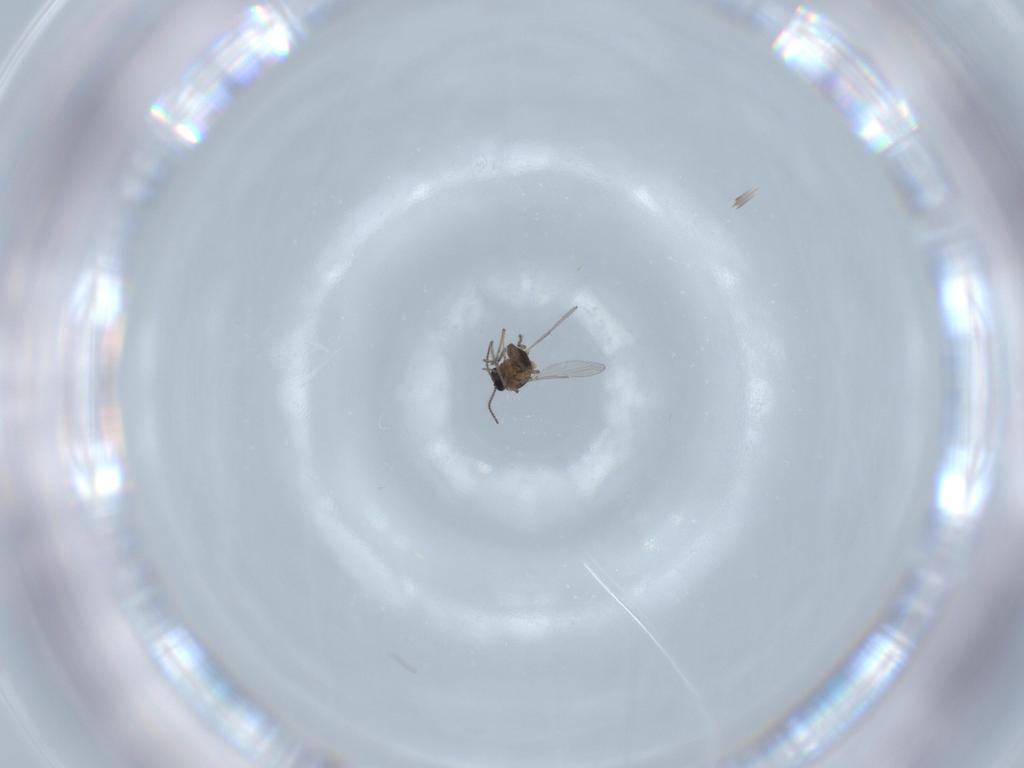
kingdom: Animalia
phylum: Arthropoda
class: Insecta
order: Diptera
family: Ceratopogonidae
